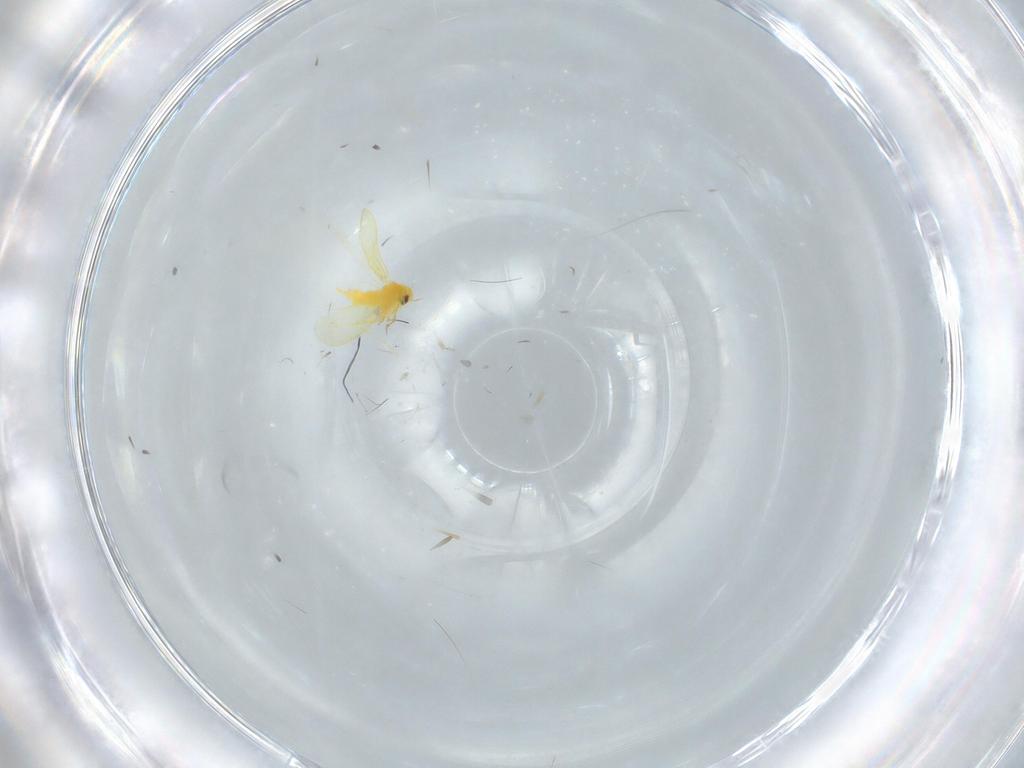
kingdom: Animalia
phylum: Arthropoda
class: Insecta
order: Hemiptera
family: Aleyrodidae
